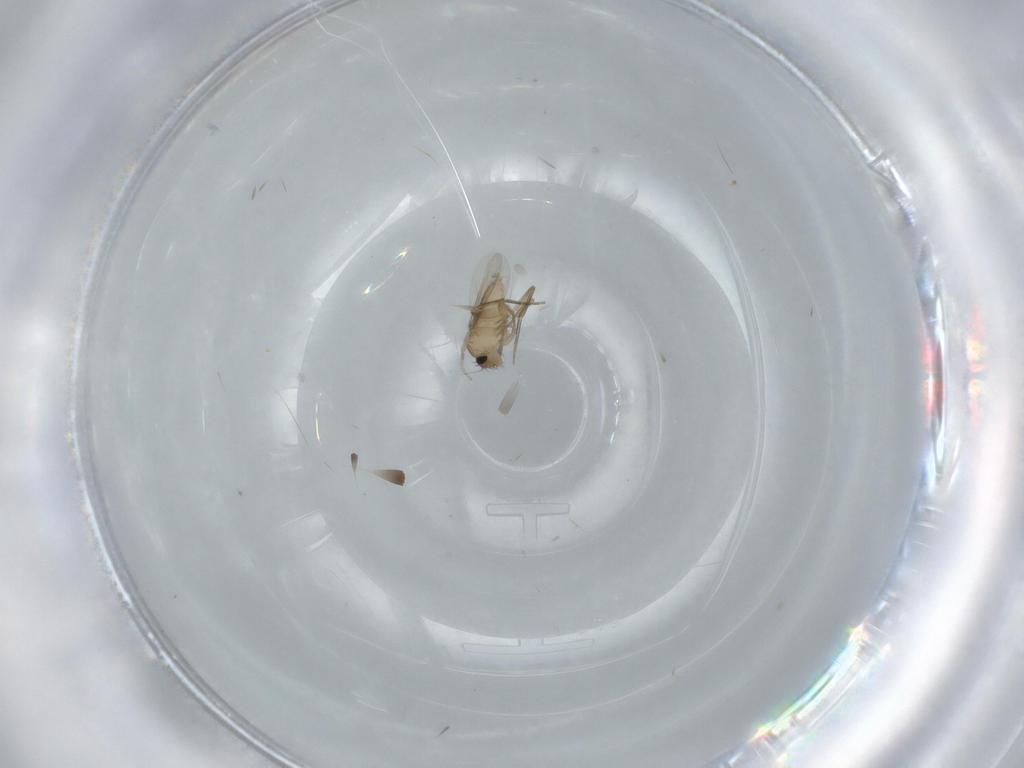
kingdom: Animalia
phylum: Arthropoda
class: Insecta
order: Diptera
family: Phoridae
